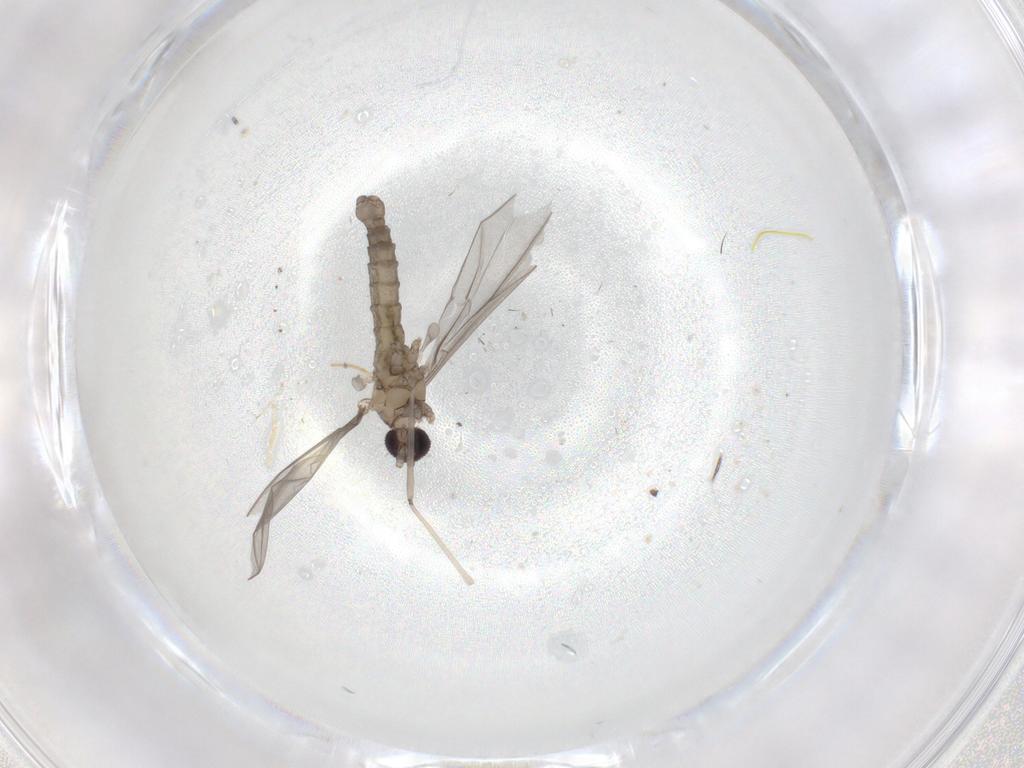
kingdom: Animalia
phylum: Arthropoda
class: Insecta
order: Diptera
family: Cecidomyiidae
